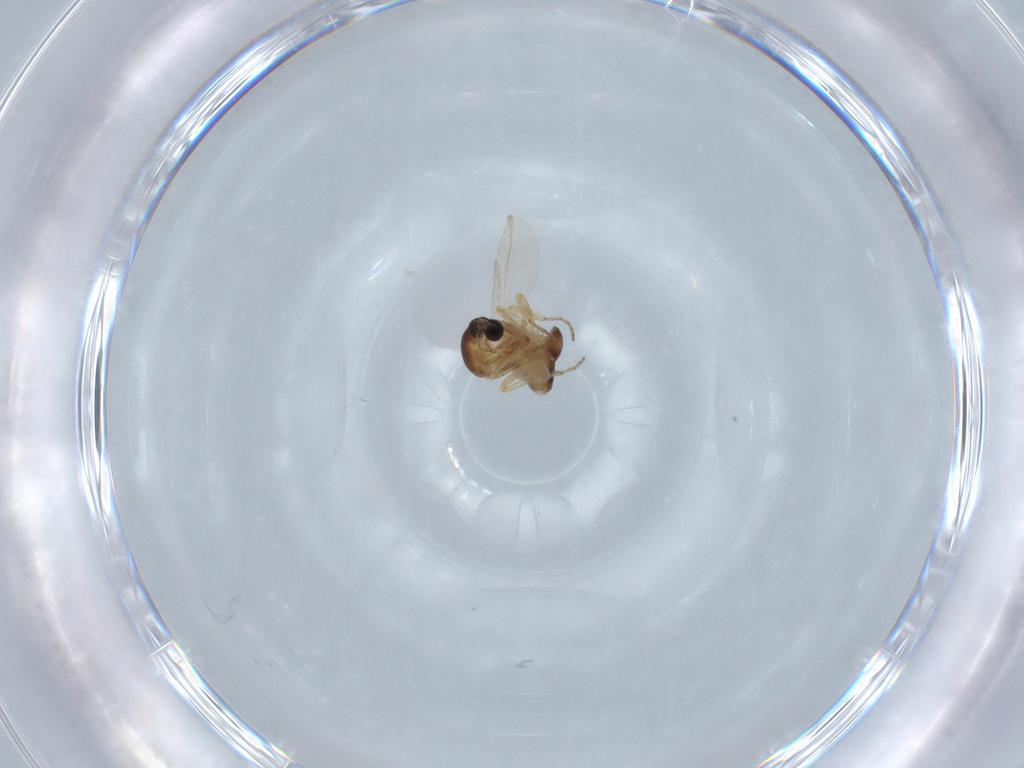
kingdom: Animalia
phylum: Arthropoda
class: Insecta
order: Diptera
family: Ceratopogonidae
